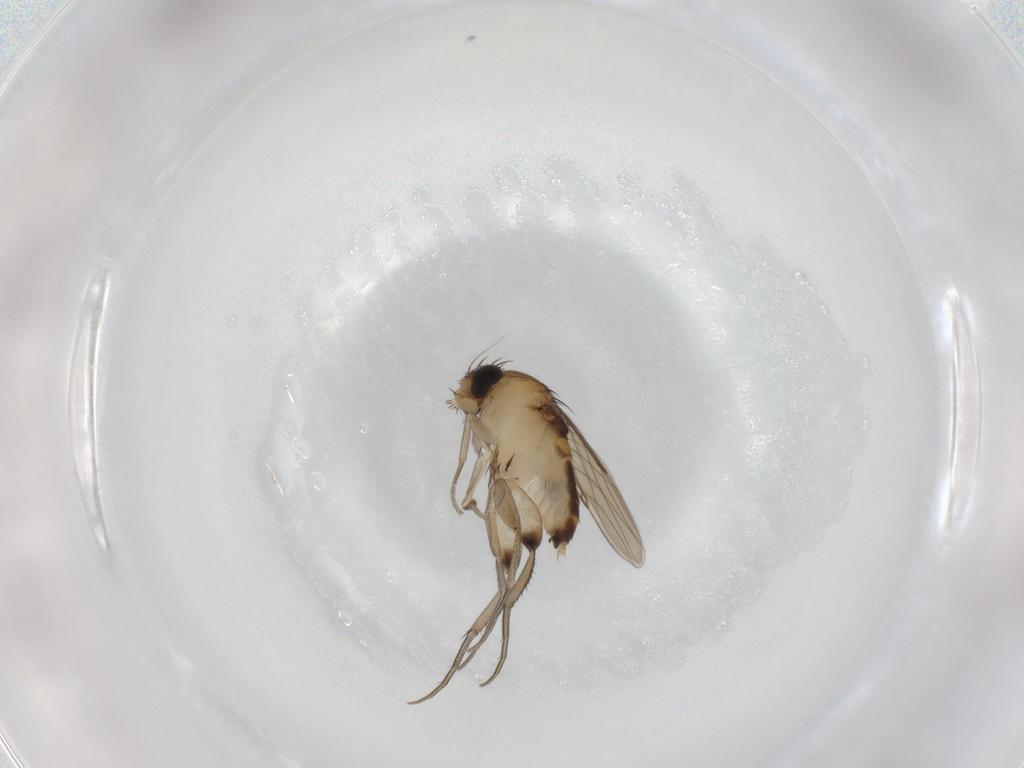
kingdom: Animalia
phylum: Arthropoda
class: Insecta
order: Diptera
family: Phoridae
